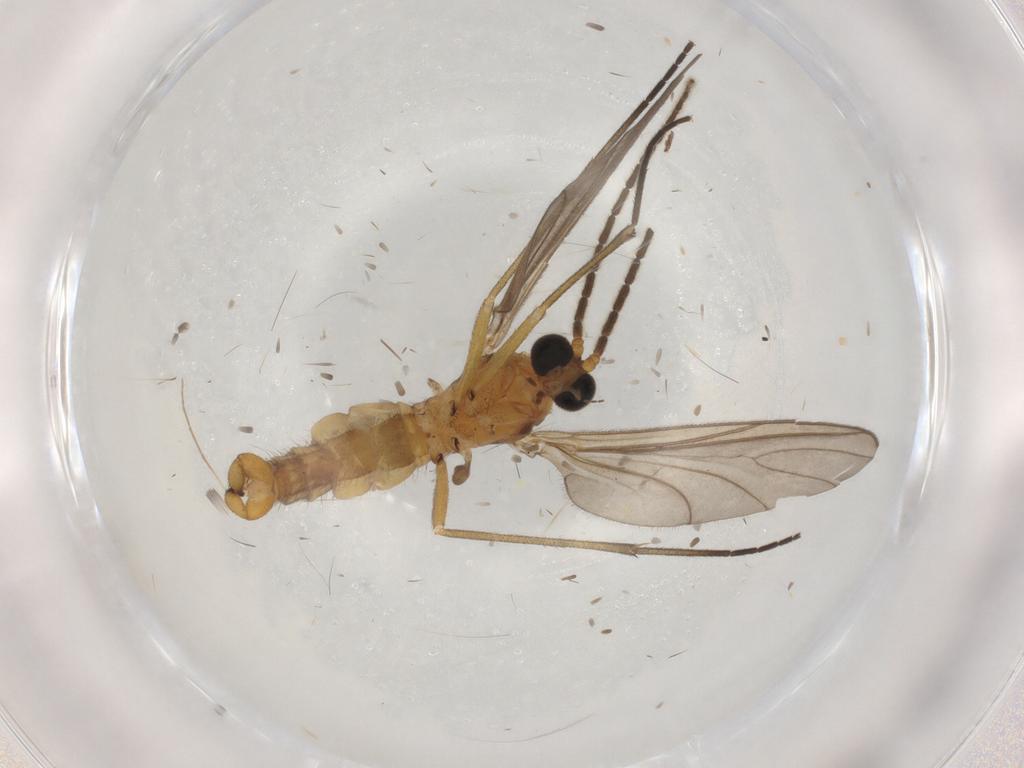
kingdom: Animalia
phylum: Arthropoda
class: Insecta
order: Diptera
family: Sciaridae
